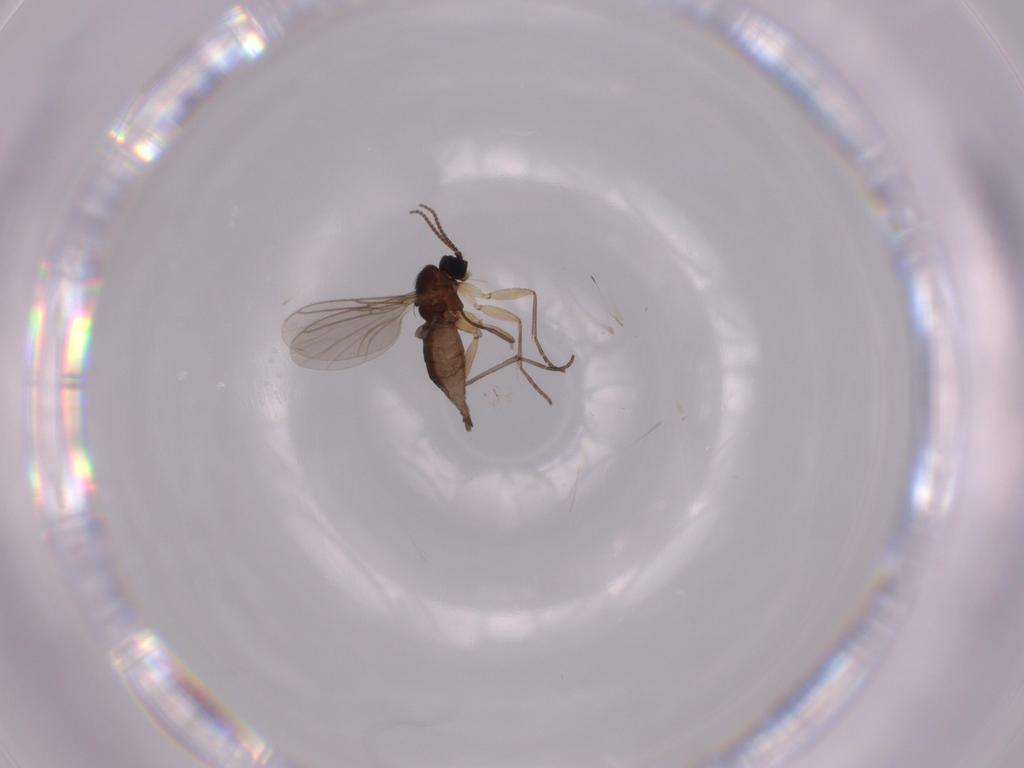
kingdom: Animalia
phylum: Arthropoda
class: Insecta
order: Diptera
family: Sciaridae
